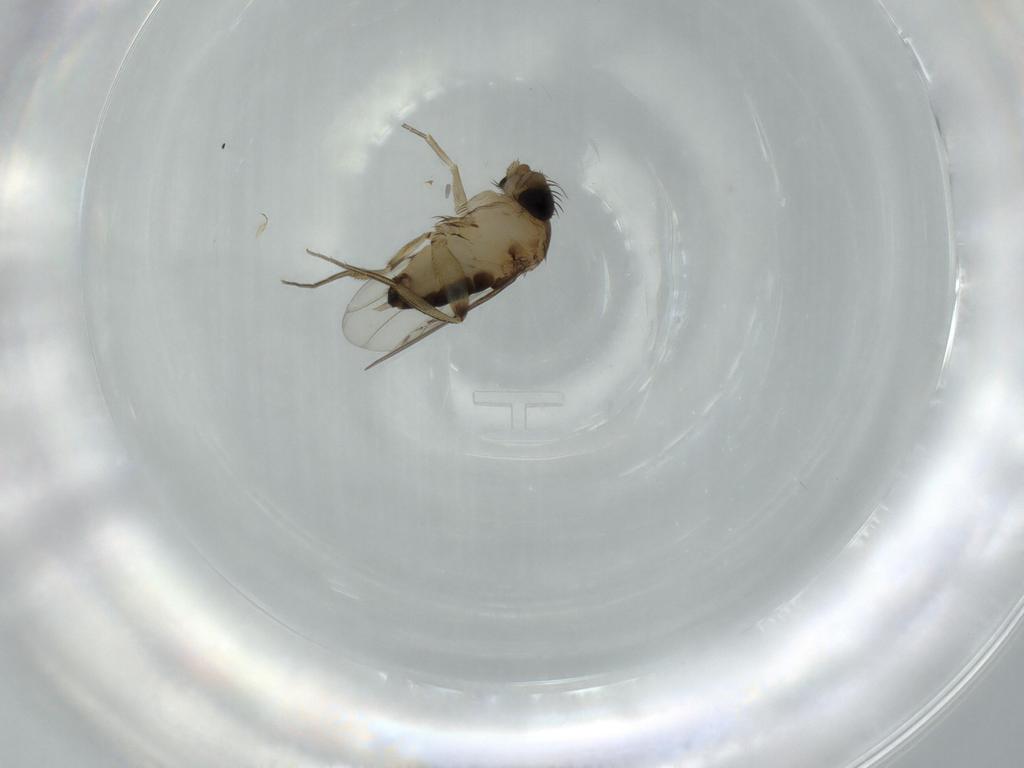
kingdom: Animalia
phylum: Arthropoda
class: Insecta
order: Diptera
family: Phoridae
